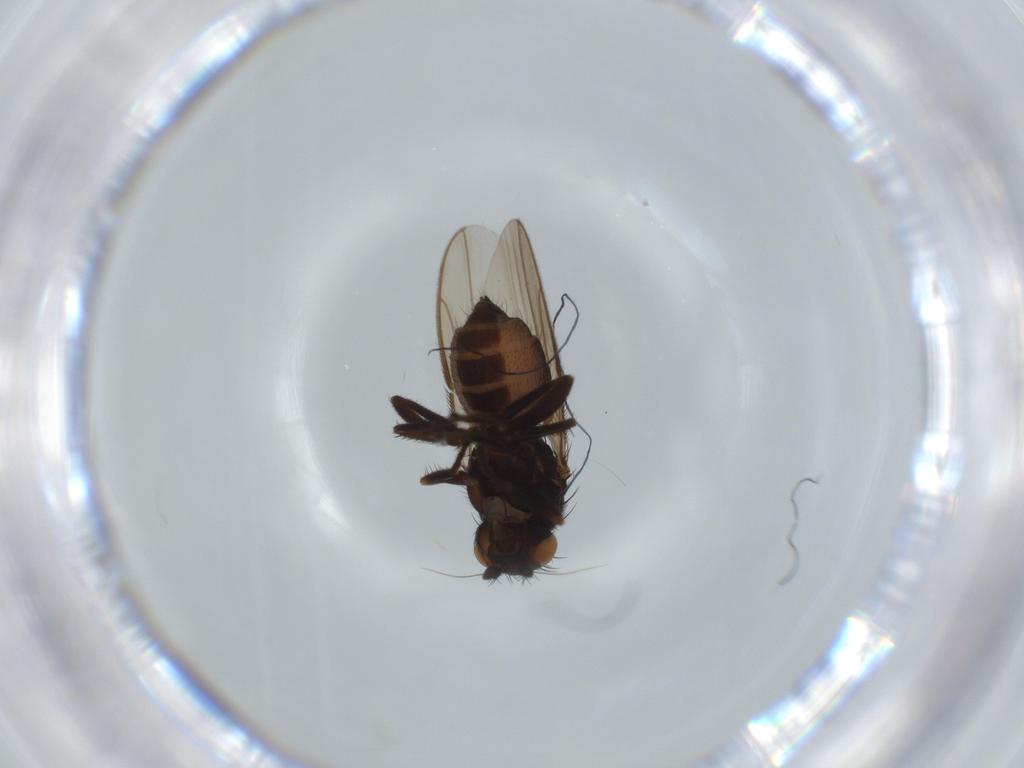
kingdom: Animalia
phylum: Arthropoda
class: Insecta
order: Diptera
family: Sphaeroceridae
